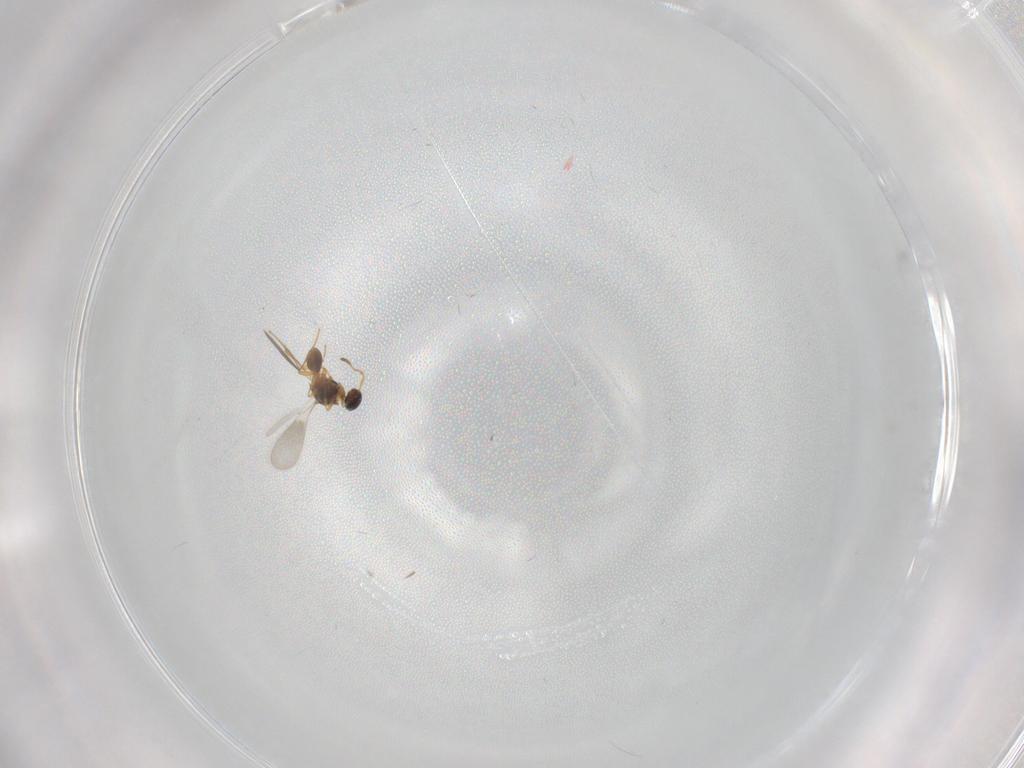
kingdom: Animalia
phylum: Arthropoda
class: Insecta
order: Hymenoptera
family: Platygastridae
